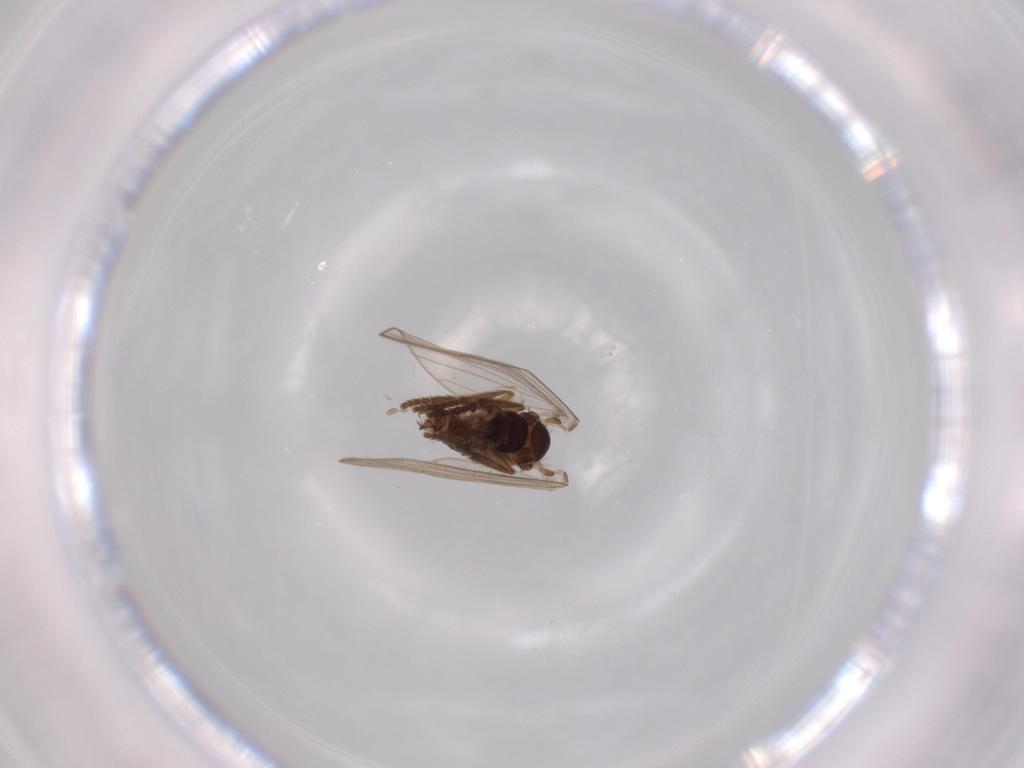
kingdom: Animalia
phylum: Arthropoda
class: Insecta
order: Diptera
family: Psychodidae
